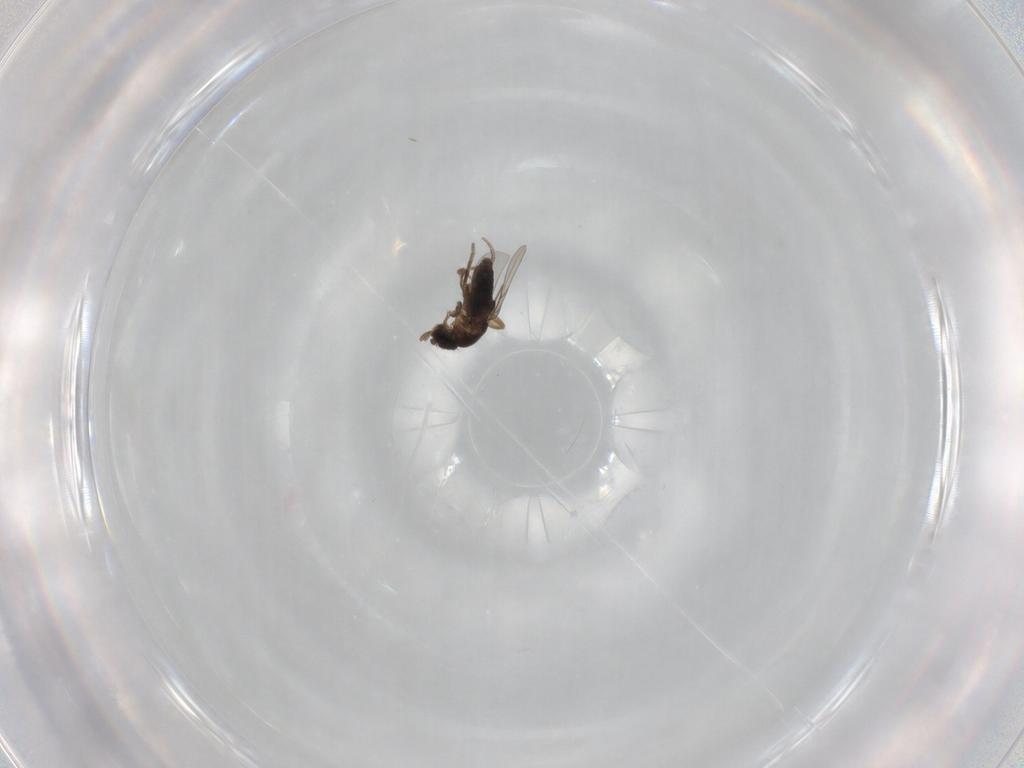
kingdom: Animalia
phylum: Arthropoda
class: Insecta
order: Diptera
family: Phoridae
